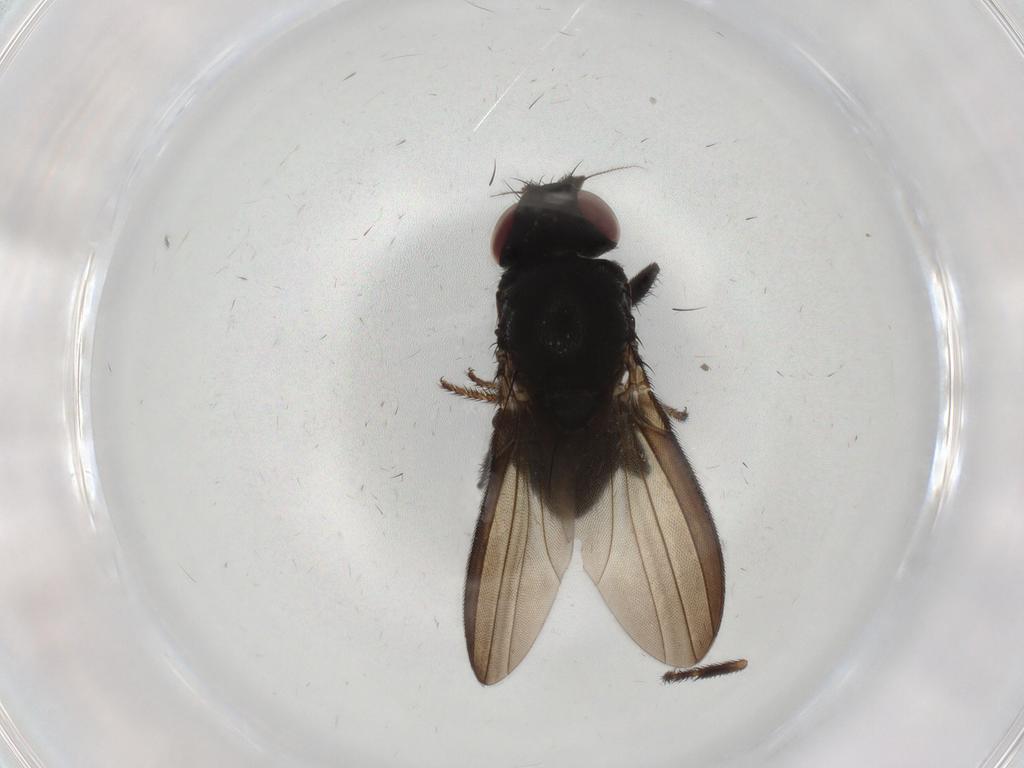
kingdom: Animalia
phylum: Arthropoda
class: Insecta
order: Diptera
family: Milichiidae
